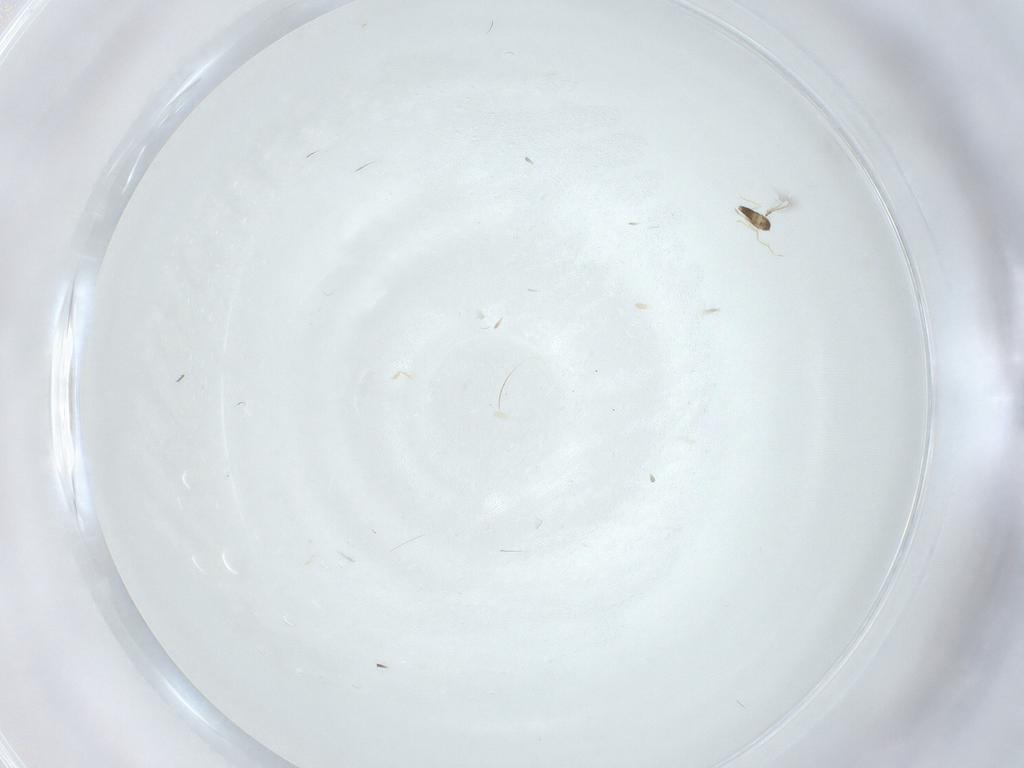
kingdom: Animalia
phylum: Arthropoda
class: Insecta
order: Hymenoptera
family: Mymaridae
